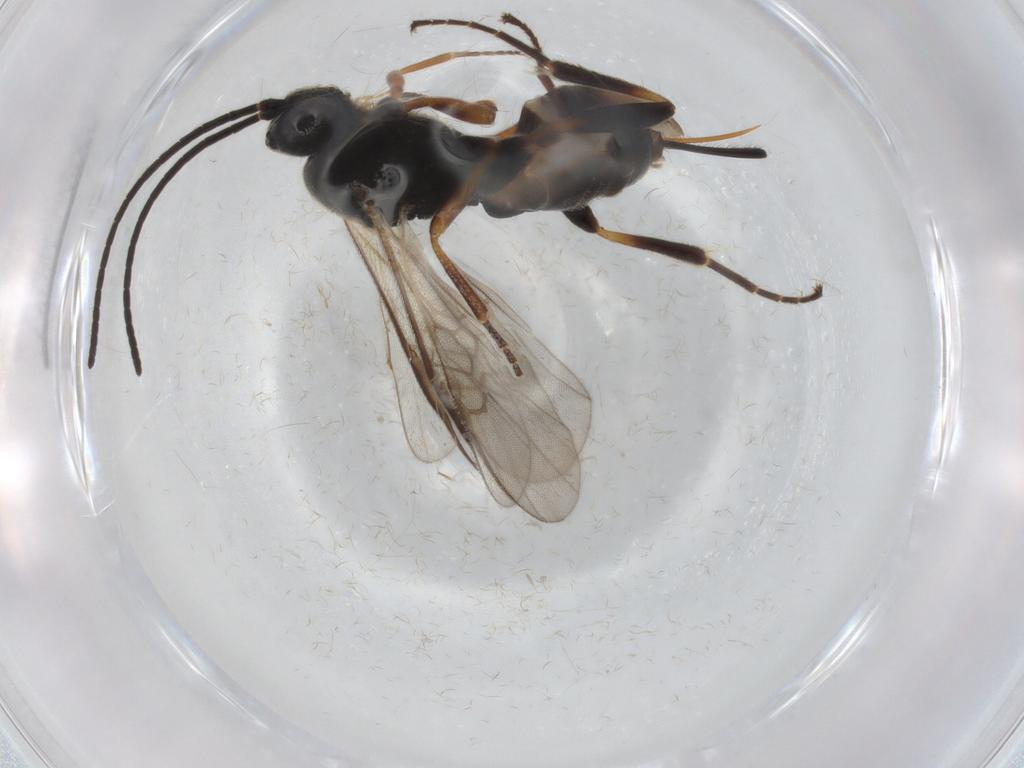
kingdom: Animalia
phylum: Arthropoda
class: Insecta
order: Hymenoptera
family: Braconidae
